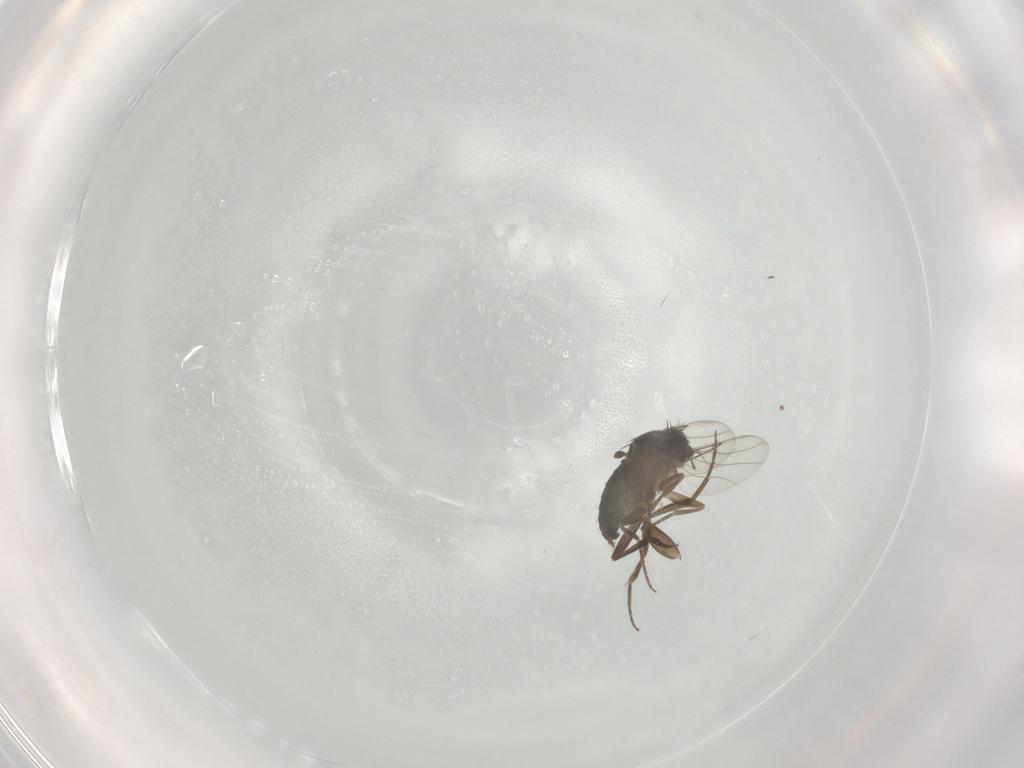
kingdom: Animalia
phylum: Arthropoda
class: Insecta
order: Diptera
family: Phoridae
